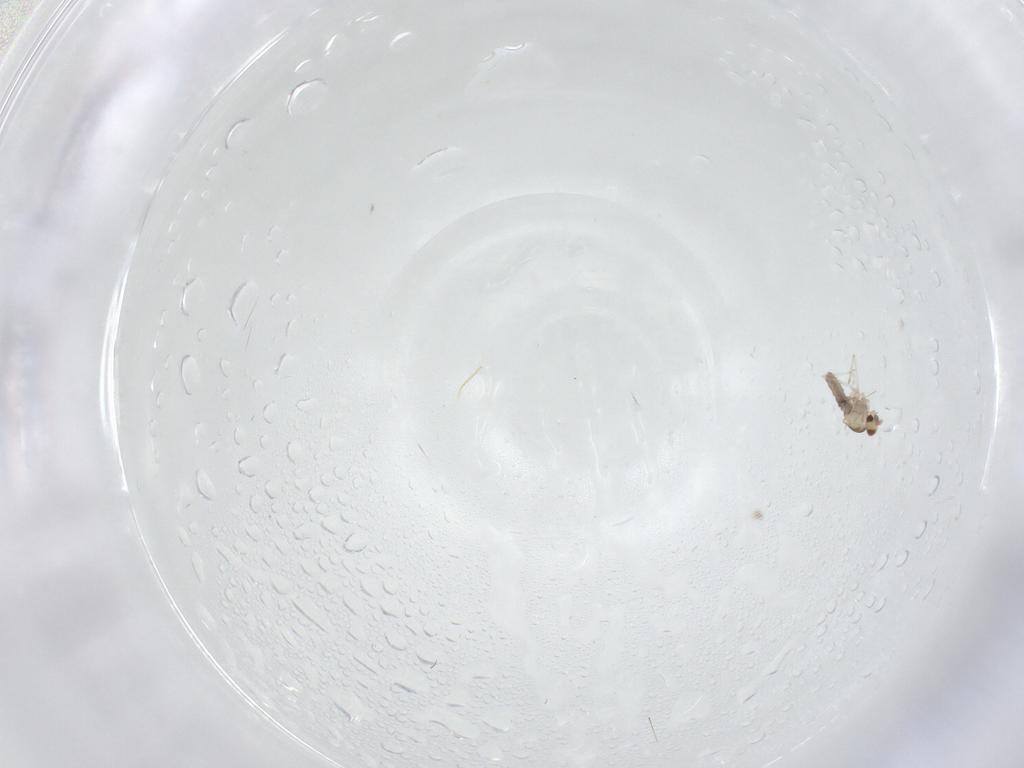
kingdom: Animalia
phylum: Arthropoda
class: Insecta
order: Diptera
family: Cecidomyiidae
